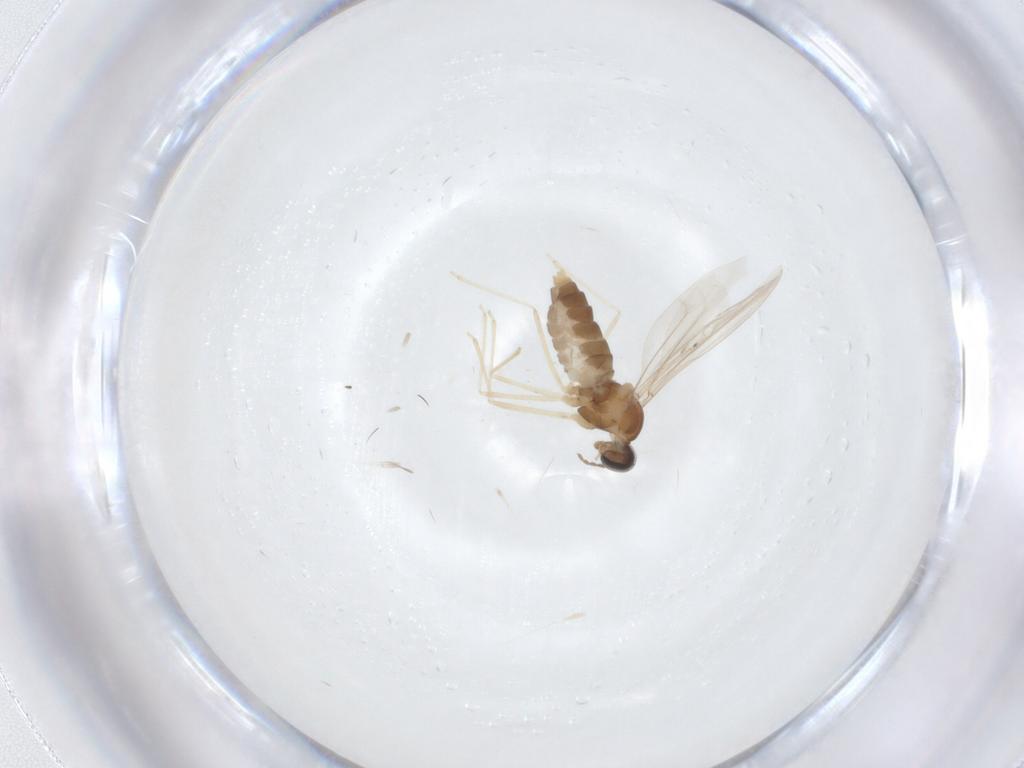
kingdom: Animalia
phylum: Arthropoda
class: Insecta
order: Diptera
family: Cecidomyiidae
